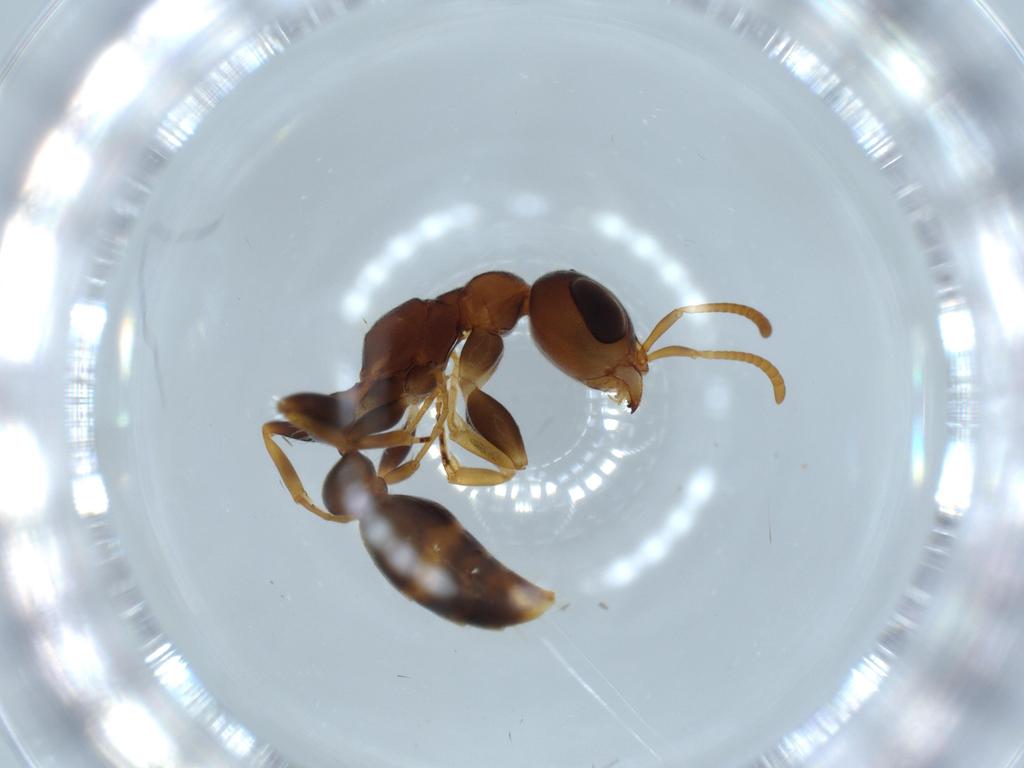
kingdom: Animalia
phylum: Arthropoda
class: Insecta
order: Hymenoptera
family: Formicidae
